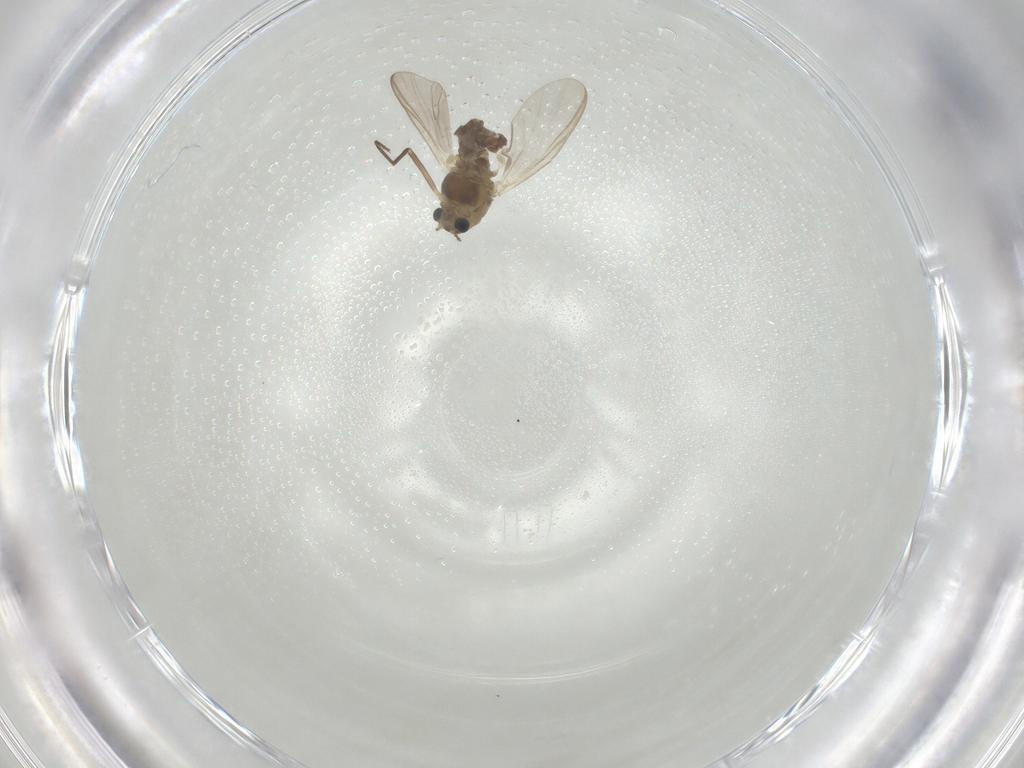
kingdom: Animalia
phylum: Arthropoda
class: Insecta
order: Diptera
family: Chironomidae
